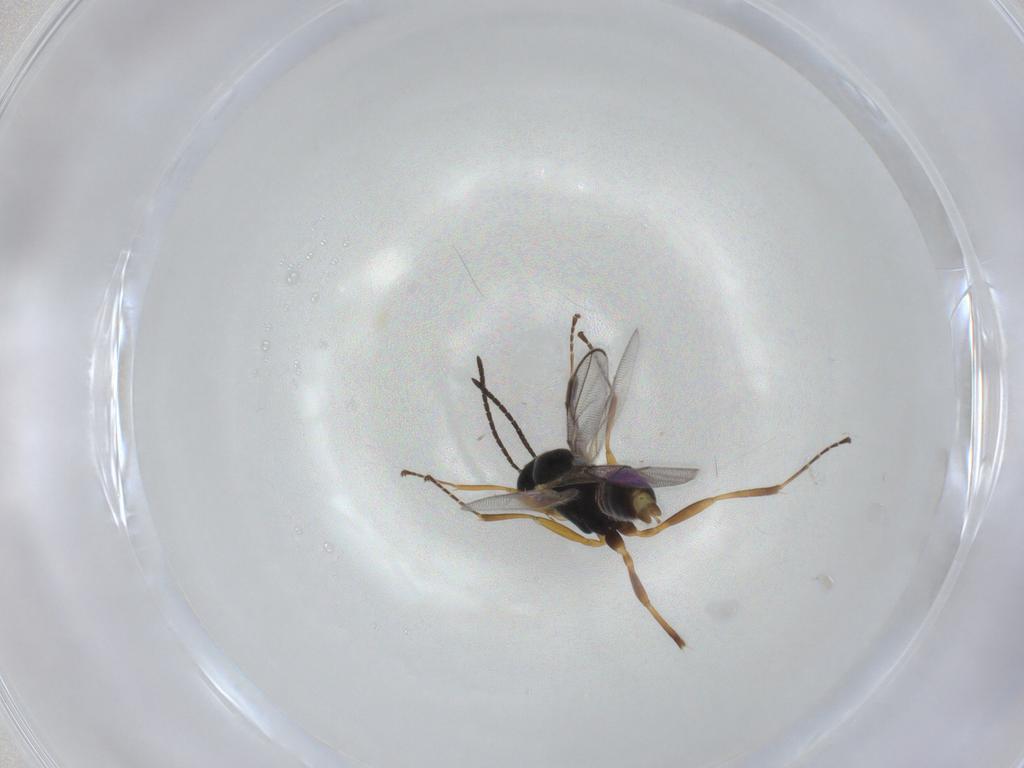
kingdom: Animalia
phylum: Arthropoda
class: Insecta
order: Hymenoptera
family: Ichneumonidae
